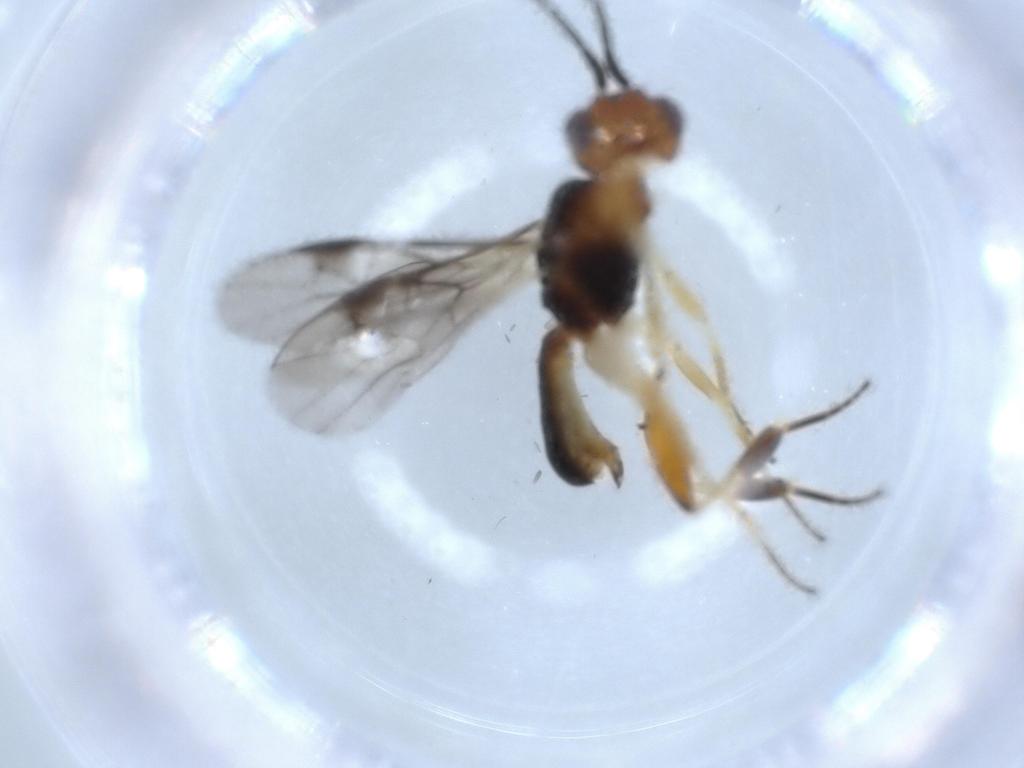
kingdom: Animalia
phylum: Arthropoda
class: Insecta
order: Hymenoptera
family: Formicidae
